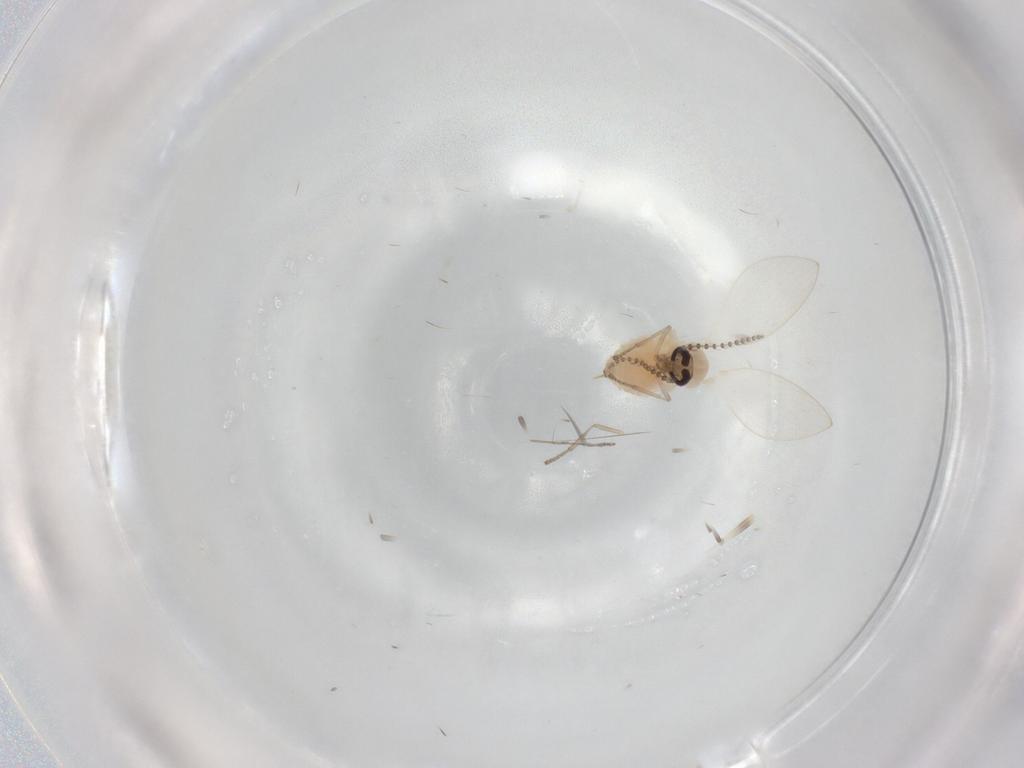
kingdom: Animalia
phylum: Arthropoda
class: Insecta
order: Diptera
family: Psychodidae
